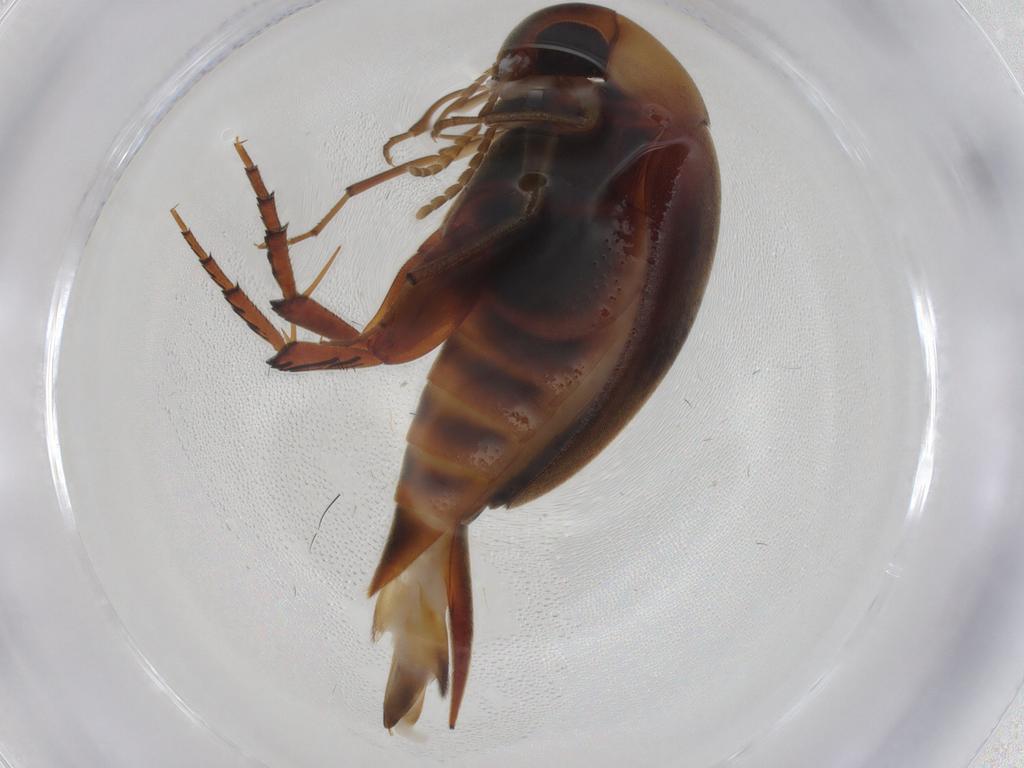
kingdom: Animalia
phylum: Arthropoda
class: Insecta
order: Coleoptera
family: Mordellidae
